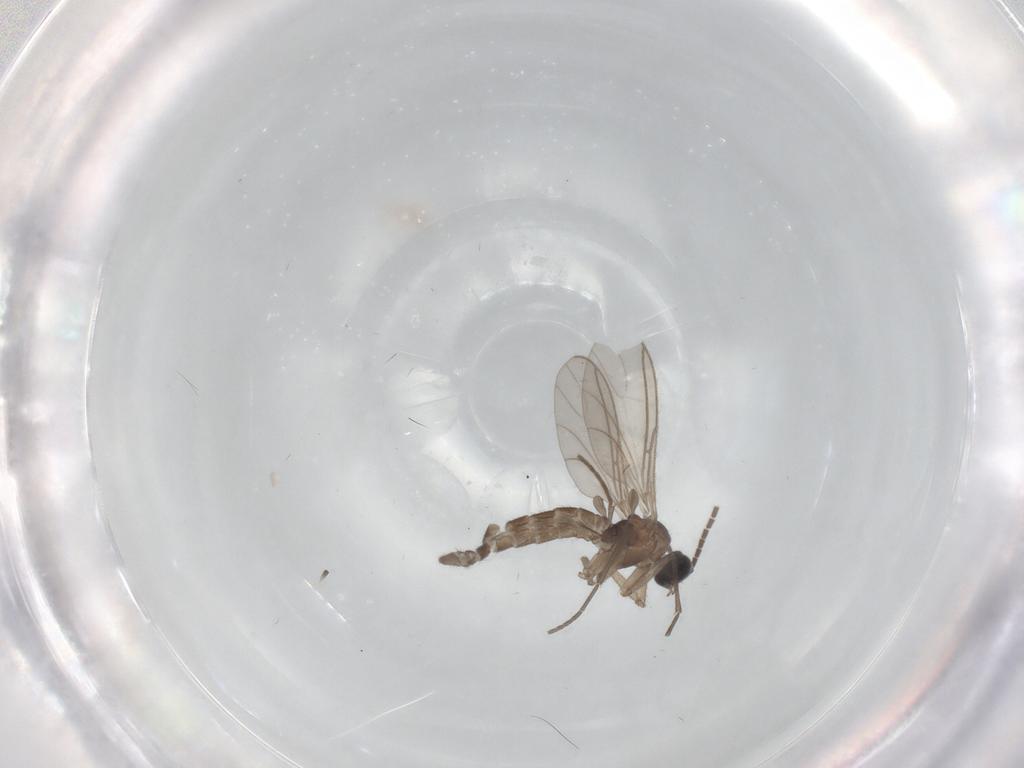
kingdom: Animalia
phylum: Arthropoda
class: Insecta
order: Diptera
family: Sciaridae
